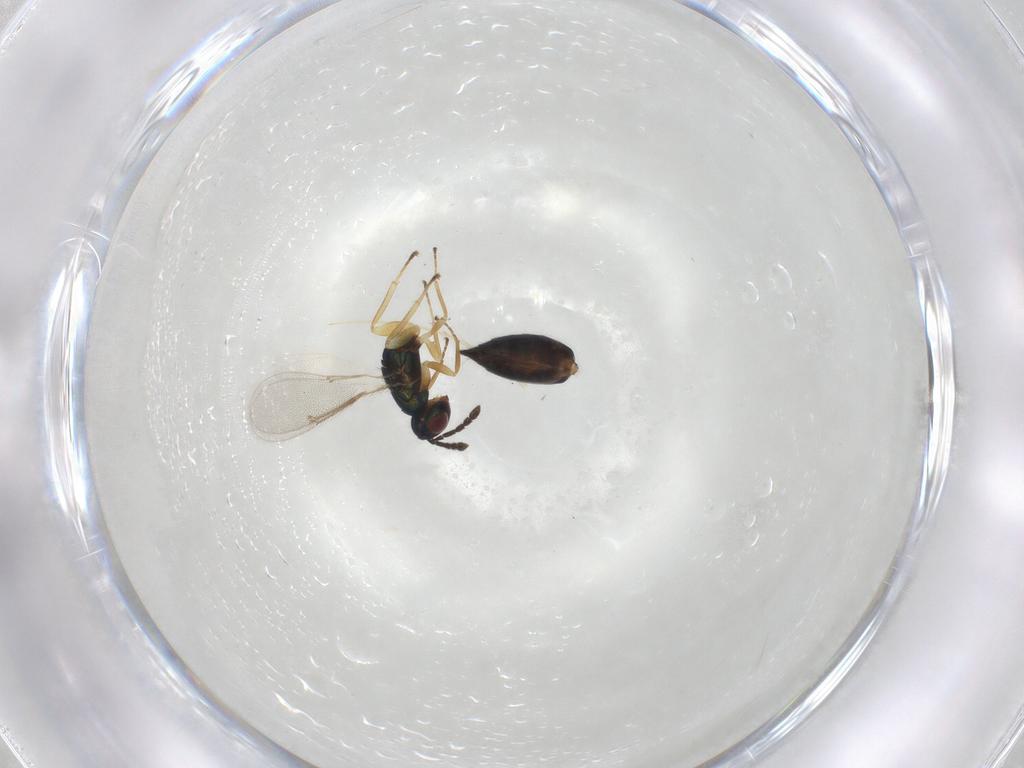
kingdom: Animalia
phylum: Arthropoda
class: Insecta
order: Hymenoptera
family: Eulophidae
